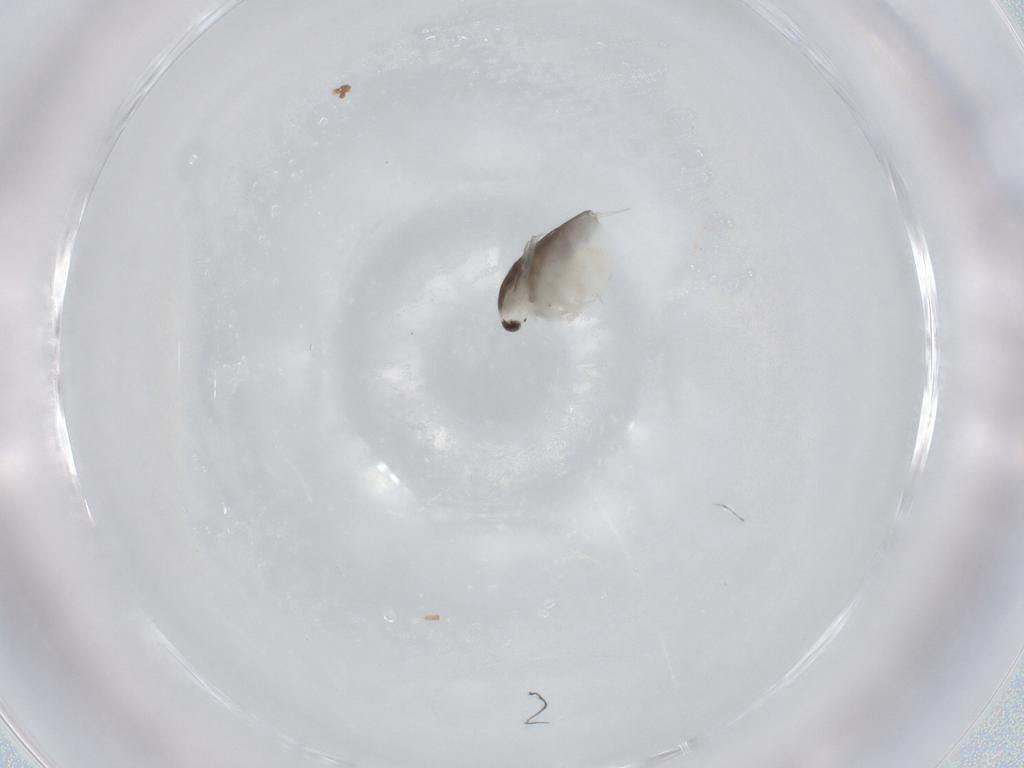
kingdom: Animalia
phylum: Arthropoda
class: Branchiopoda
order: Diplostraca
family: Daphniidae
